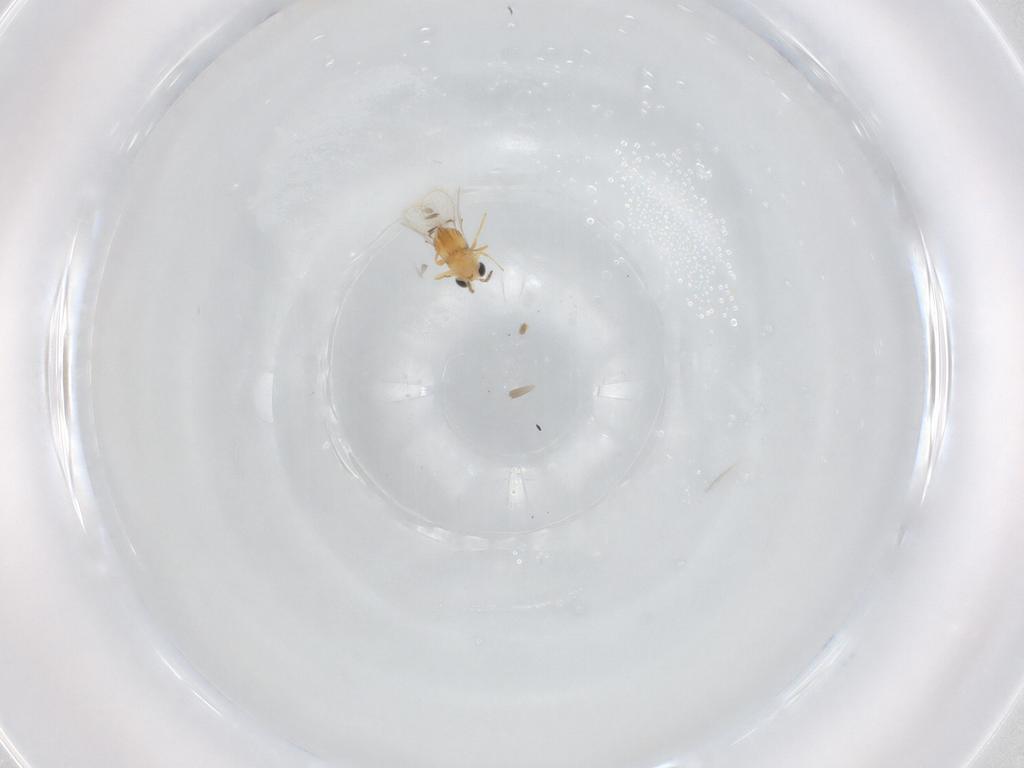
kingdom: Animalia
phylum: Arthropoda
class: Insecta
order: Hymenoptera
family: Trichogrammatidae
